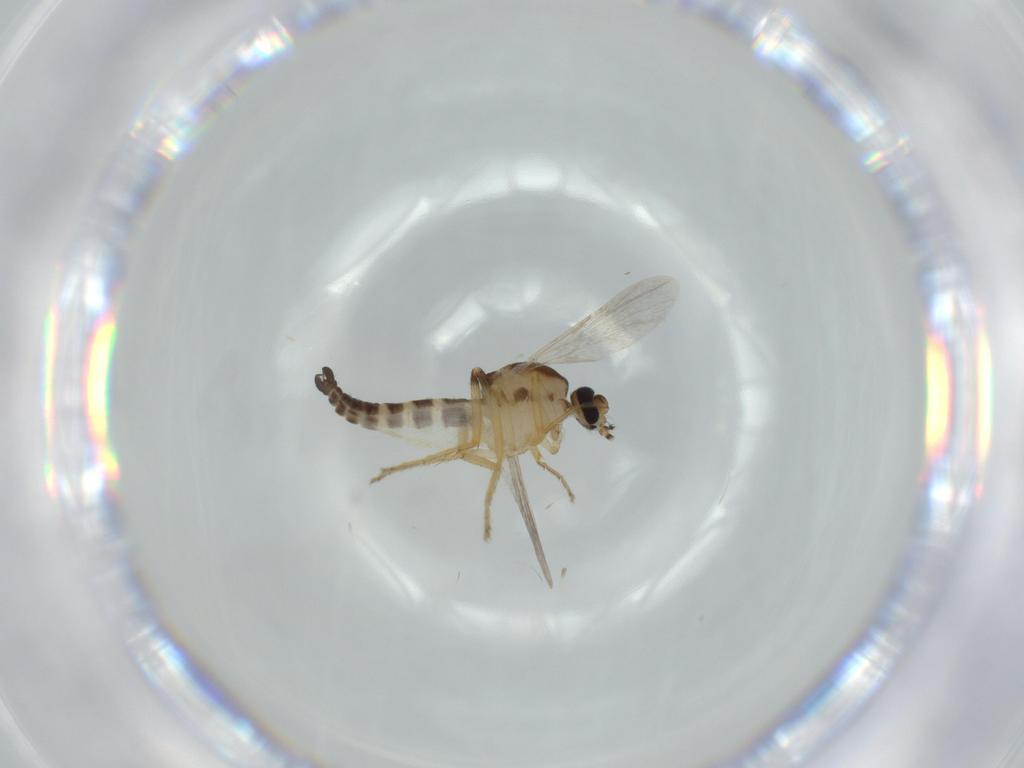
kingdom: Animalia
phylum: Arthropoda
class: Insecta
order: Diptera
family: Ceratopogonidae
